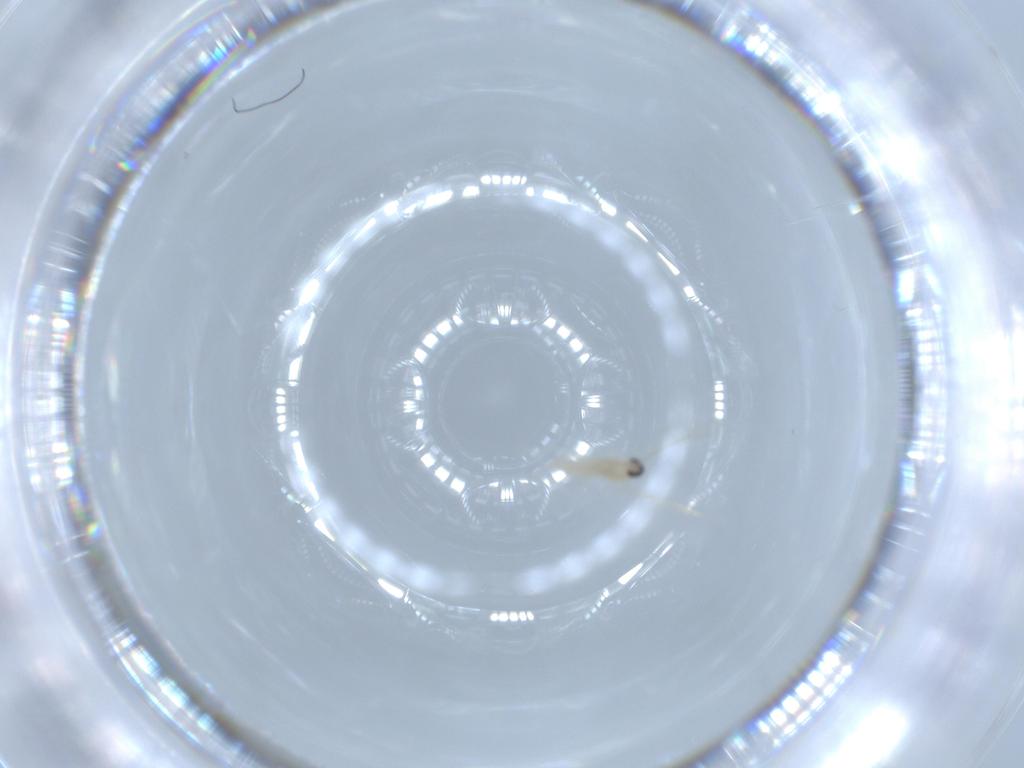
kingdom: Animalia
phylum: Arthropoda
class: Insecta
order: Diptera
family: Cecidomyiidae
